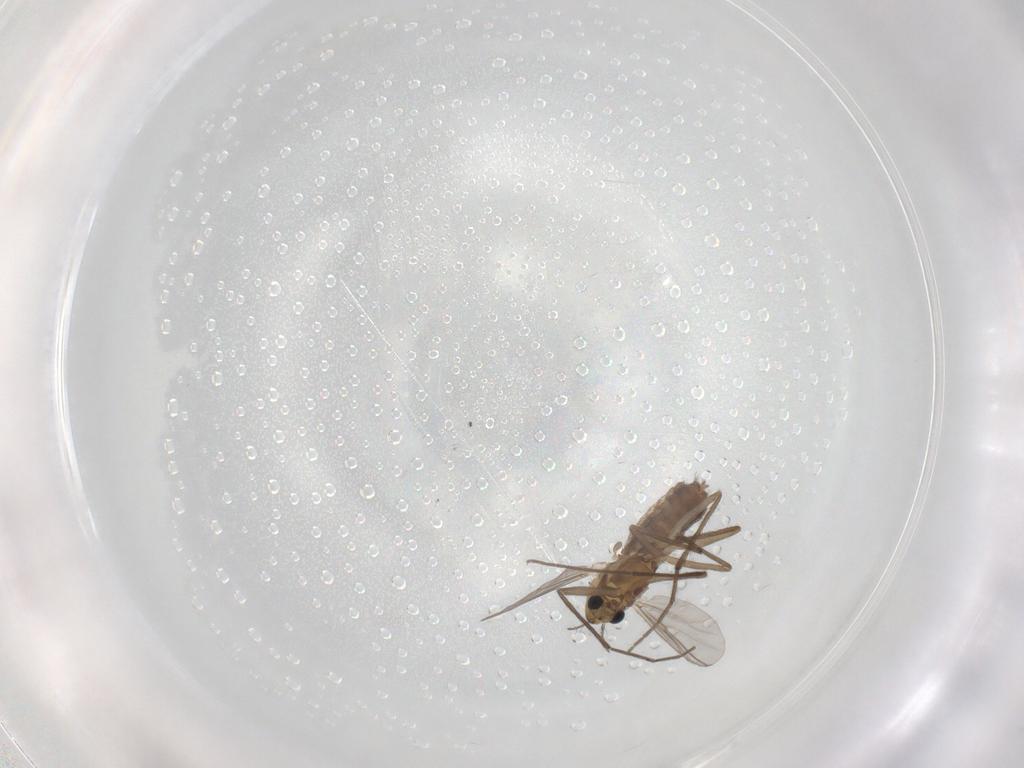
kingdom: Animalia
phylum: Arthropoda
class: Insecta
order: Diptera
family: Chironomidae
